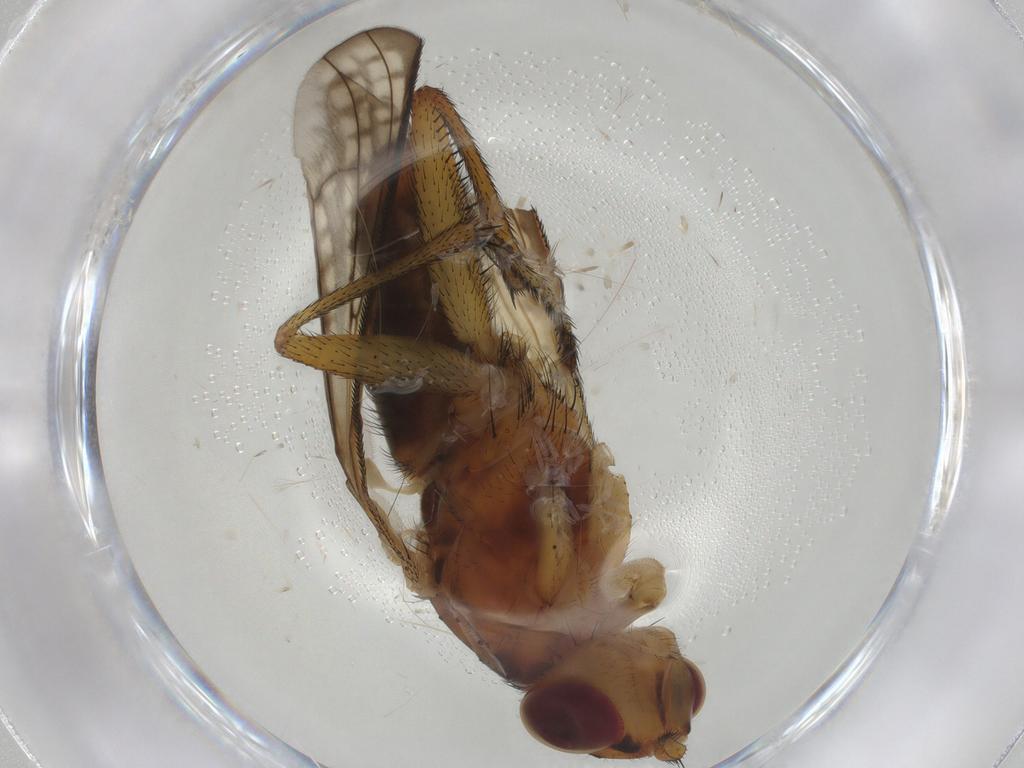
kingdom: Animalia
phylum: Arthropoda
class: Insecta
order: Diptera
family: Sciomyzidae
